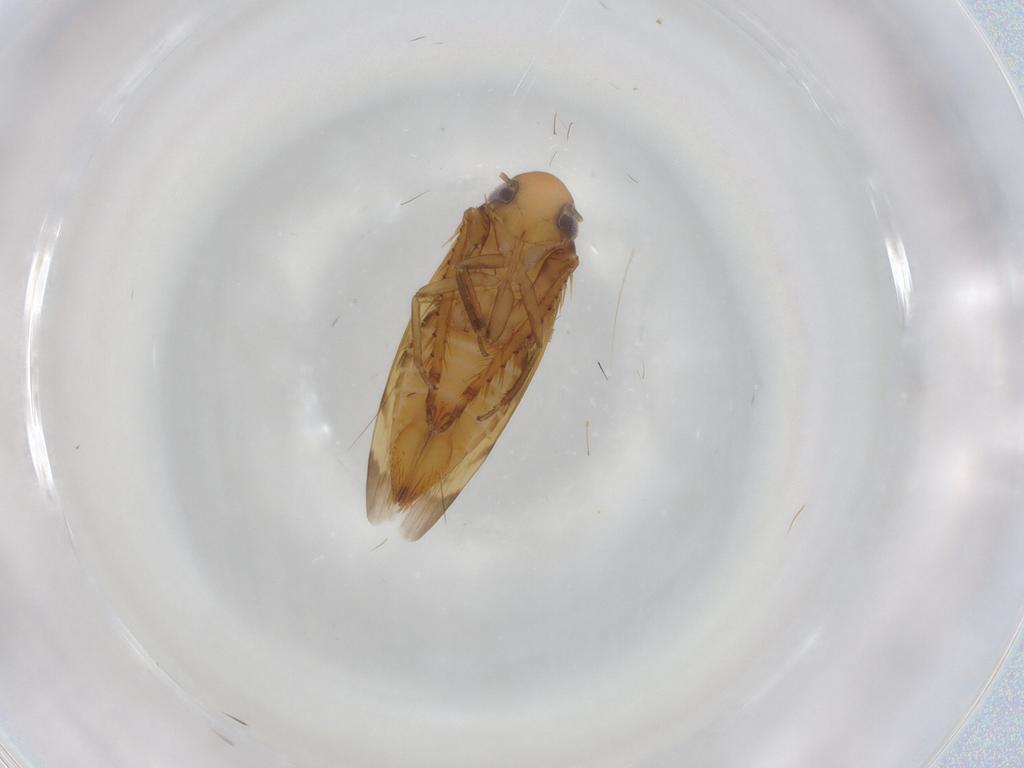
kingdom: Animalia
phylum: Arthropoda
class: Insecta
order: Hemiptera
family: Cicadellidae
